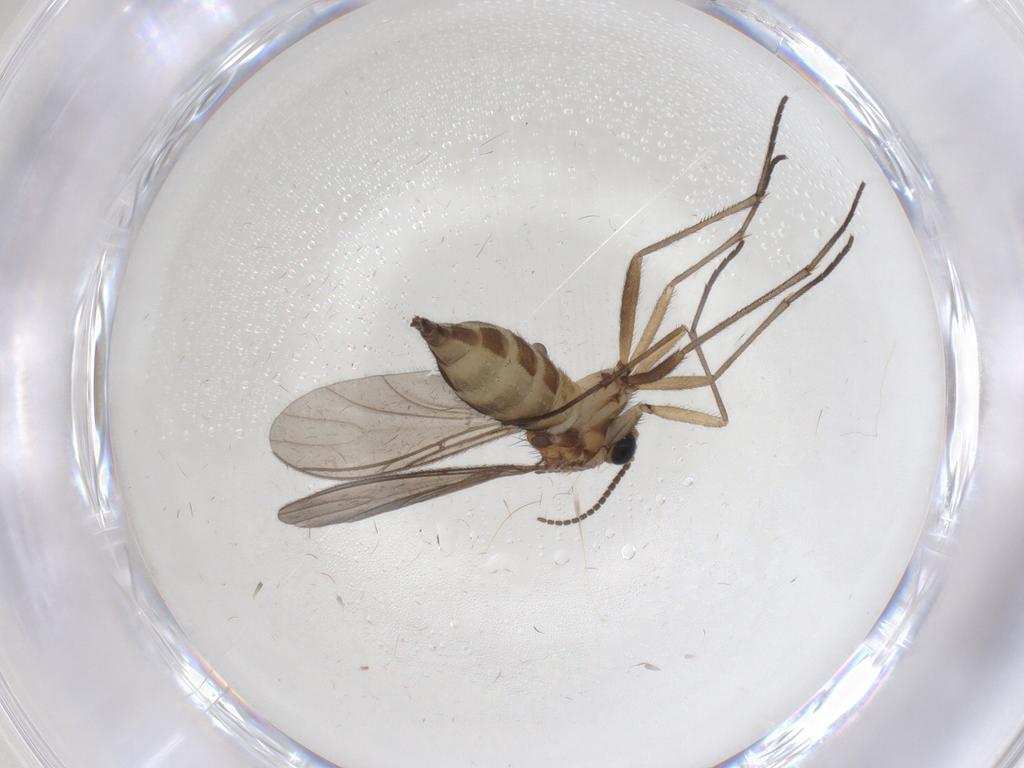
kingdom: Animalia
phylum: Arthropoda
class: Insecta
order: Diptera
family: Sciaridae
